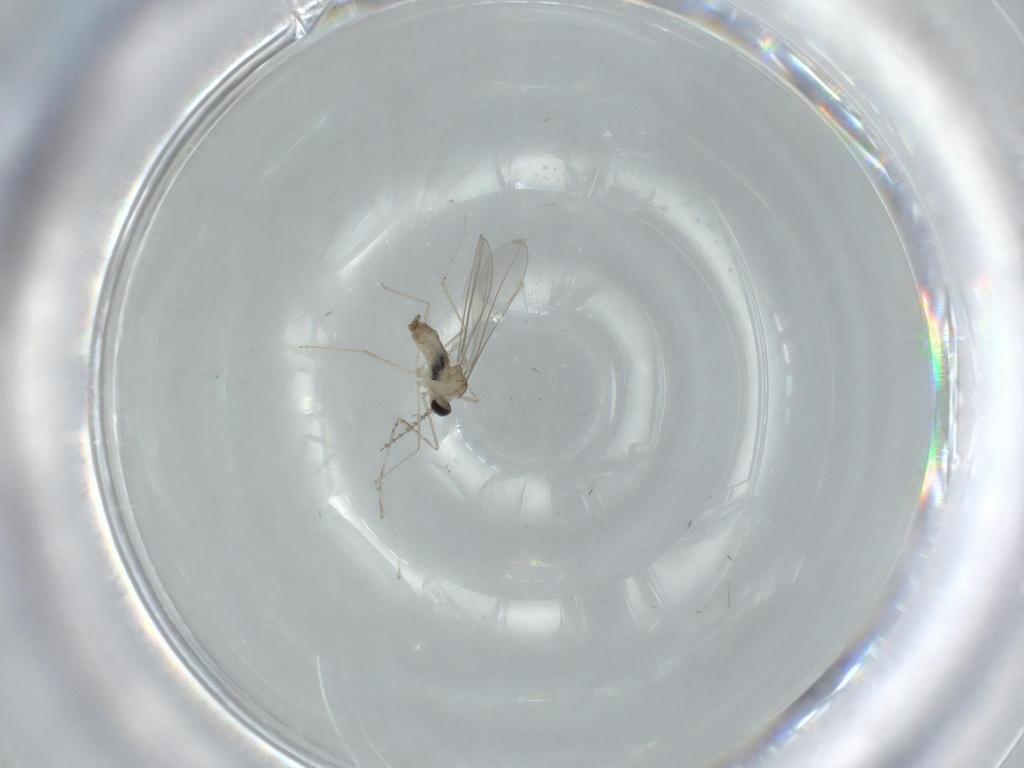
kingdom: Animalia
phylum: Arthropoda
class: Insecta
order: Diptera
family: Cecidomyiidae
